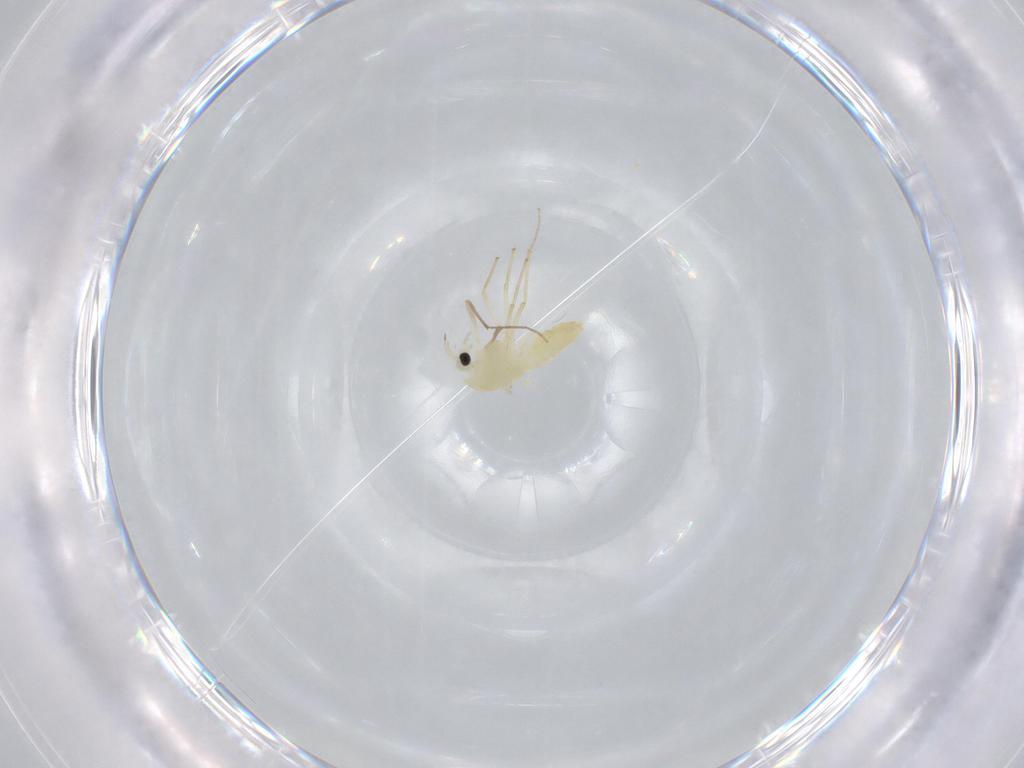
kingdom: Animalia
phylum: Arthropoda
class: Insecta
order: Diptera
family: Chironomidae
